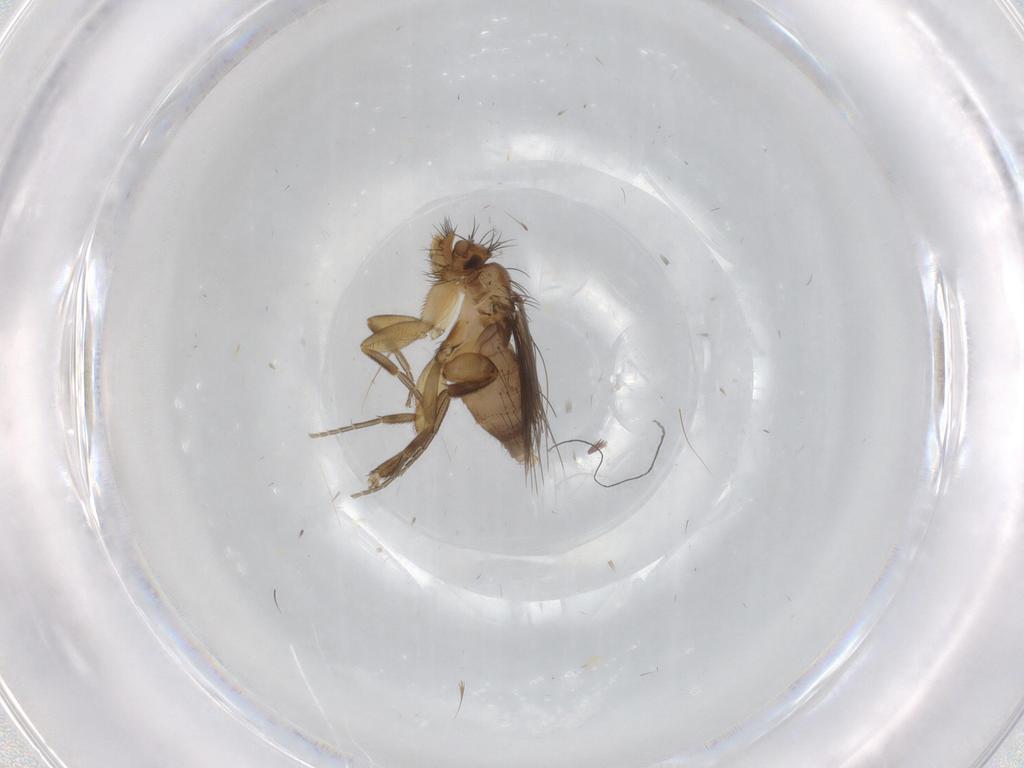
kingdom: Animalia
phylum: Arthropoda
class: Insecta
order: Diptera
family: Phoridae
